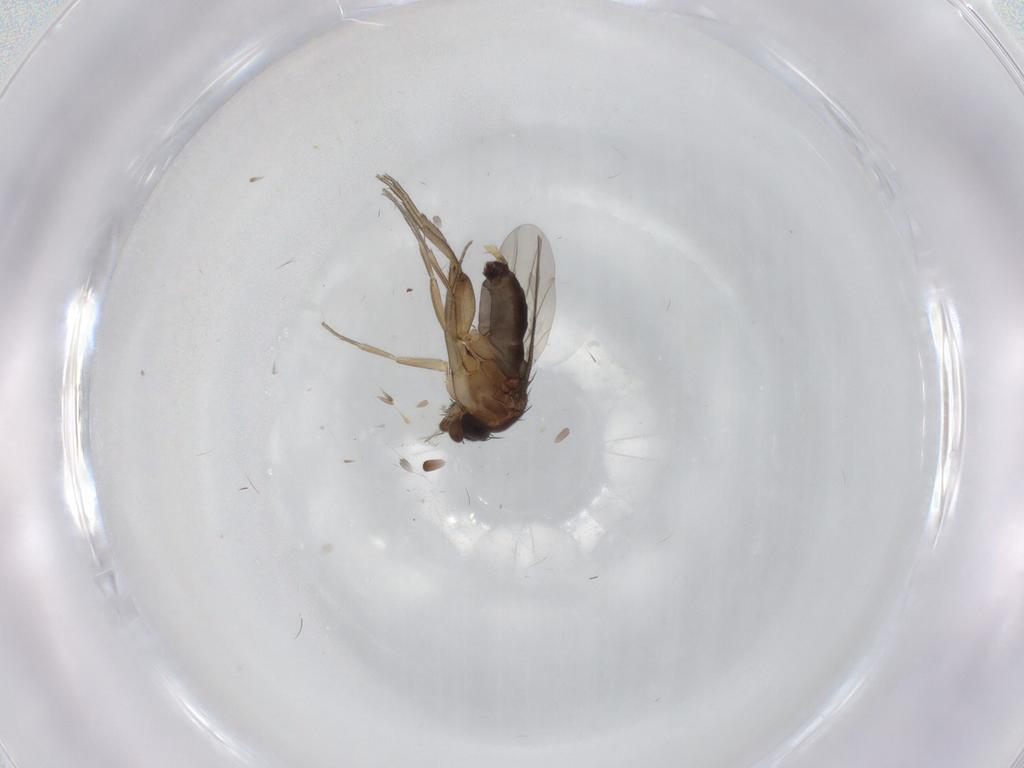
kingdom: Animalia
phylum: Arthropoda
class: Insecta
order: Diptera
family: Phoridae
